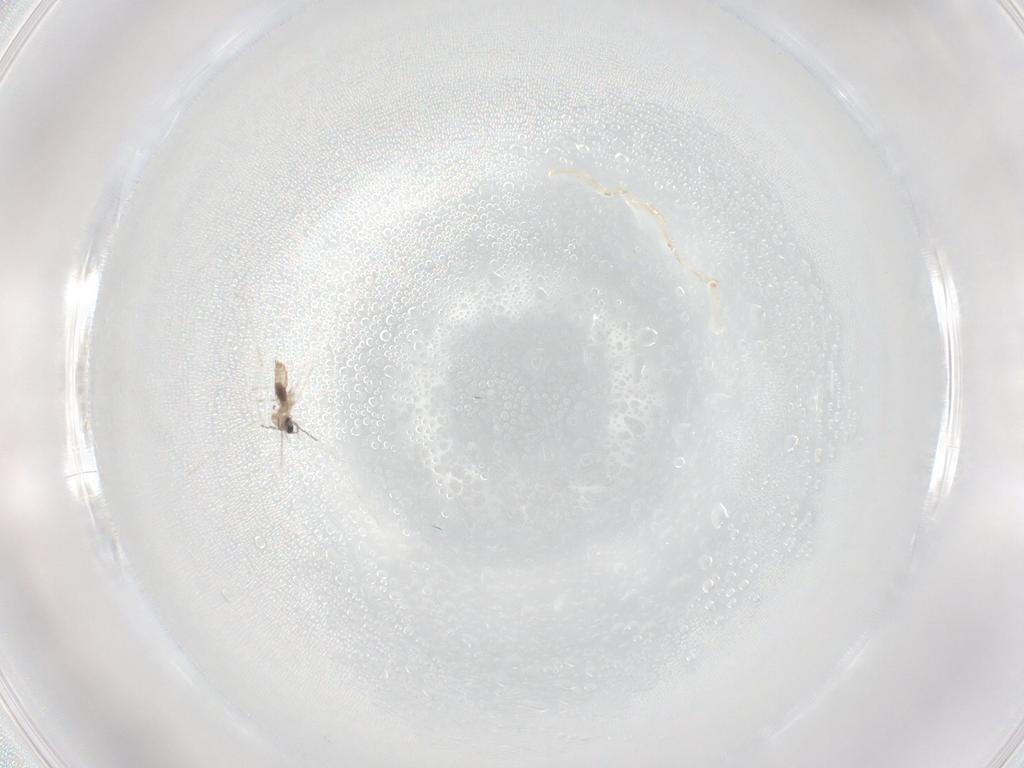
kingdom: Animalia
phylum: Arthropoda
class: Insecta
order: Diptera
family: Cecidomyiidae
